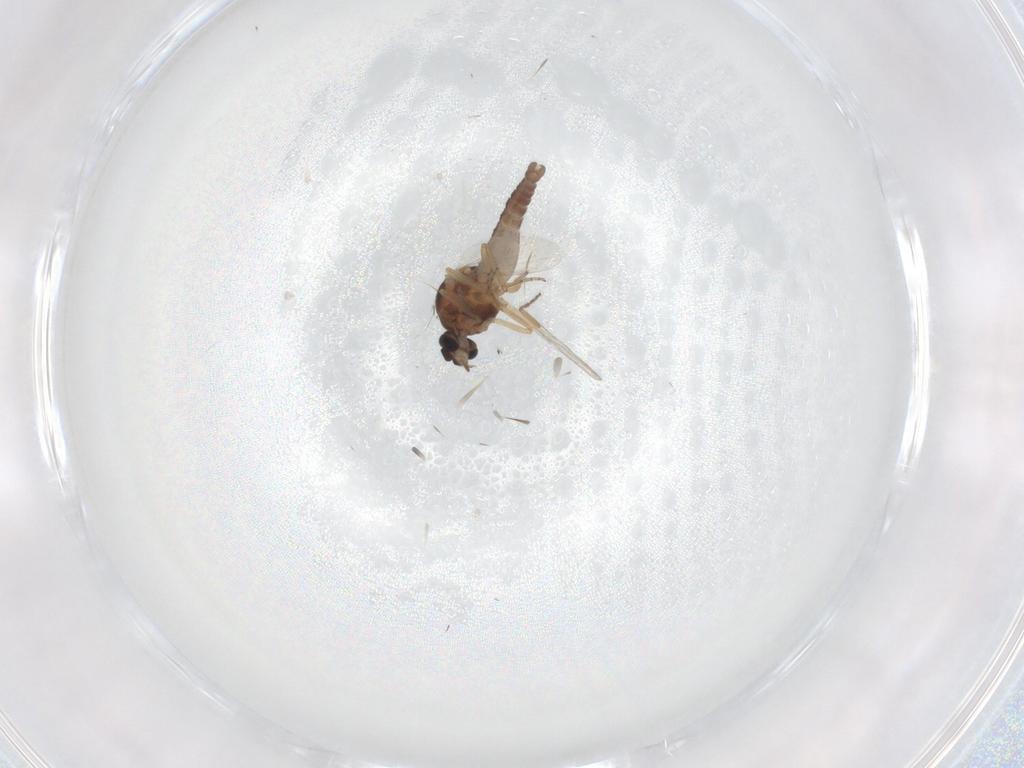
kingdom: Animalia
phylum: Arthropoda
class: Insecta
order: Diptera
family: Ceratopogonidae
